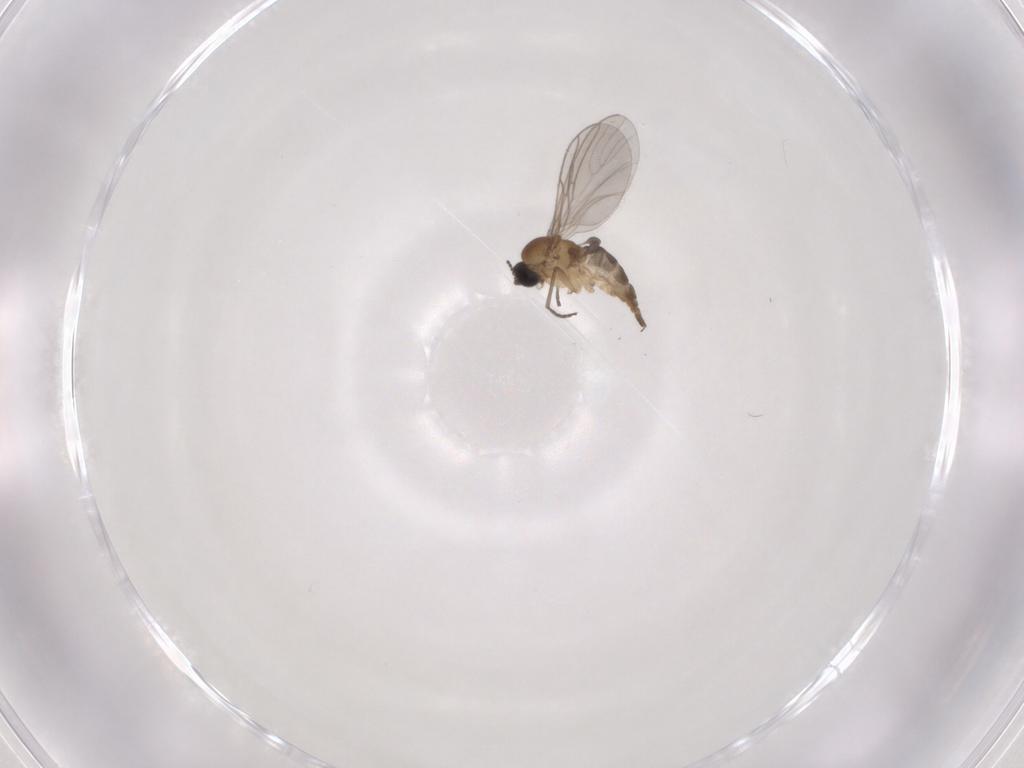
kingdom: Animalia
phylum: Arthropoda
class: Insecta
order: Diptera
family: Sciaridae
